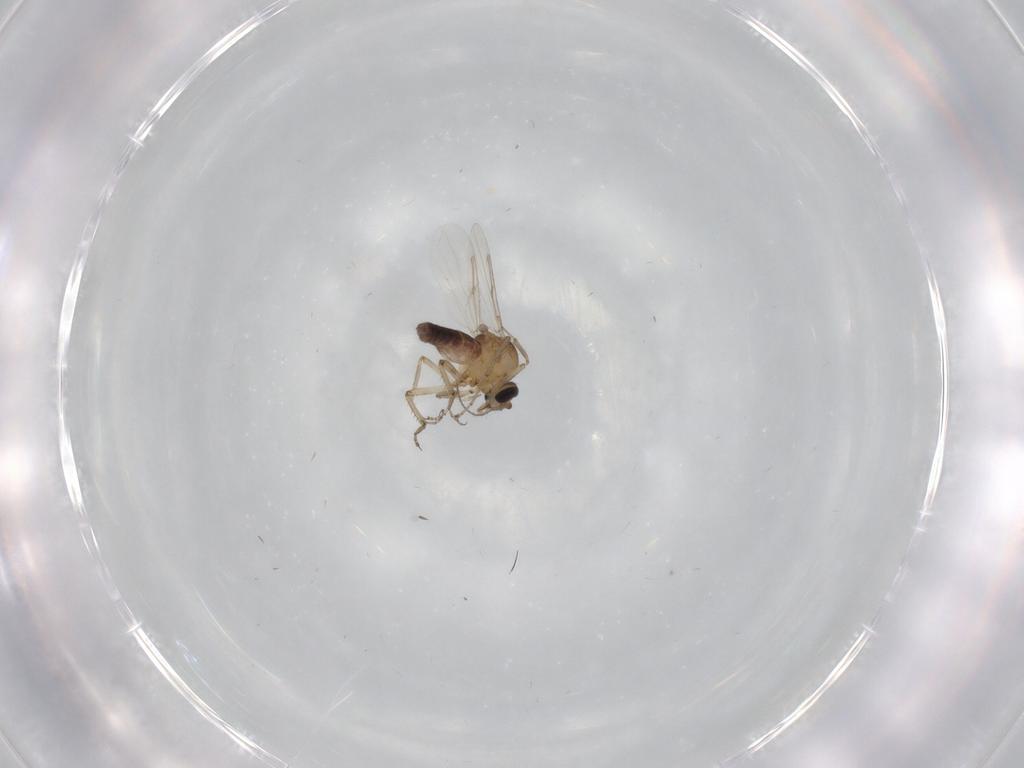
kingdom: Animalia
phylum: Arthropoda
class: Insecta
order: Diptera
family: Ceratopogonidae
